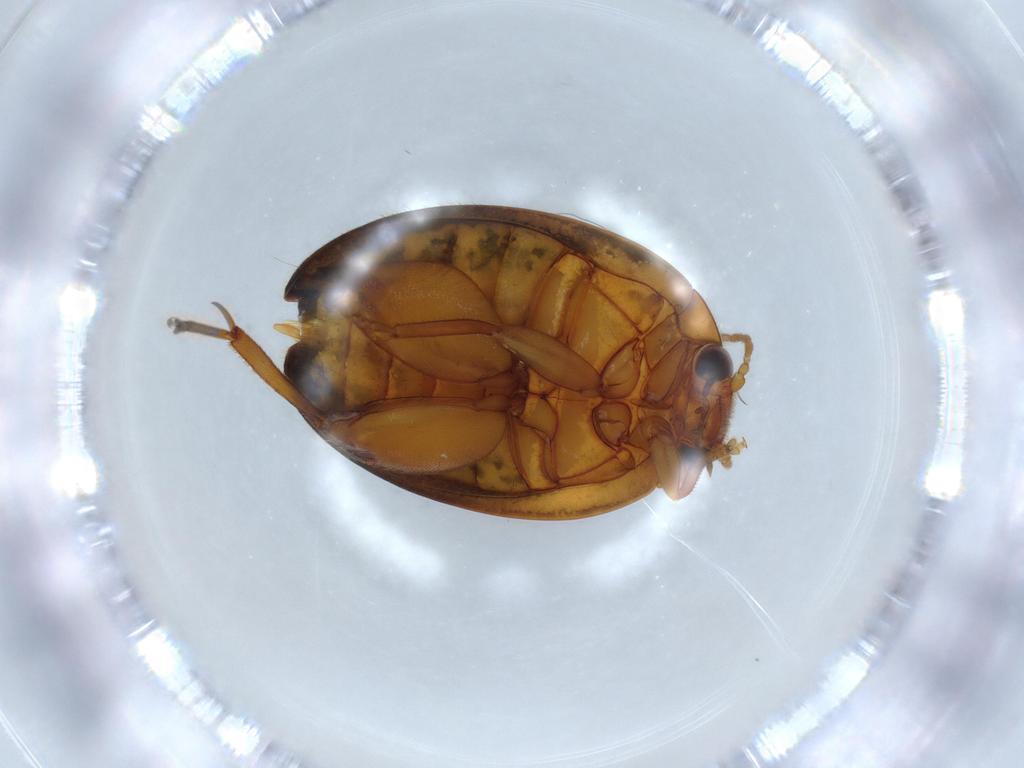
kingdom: Animalia
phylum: Arthropoda
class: Insecta
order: Coleoptera
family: Scirtidae
